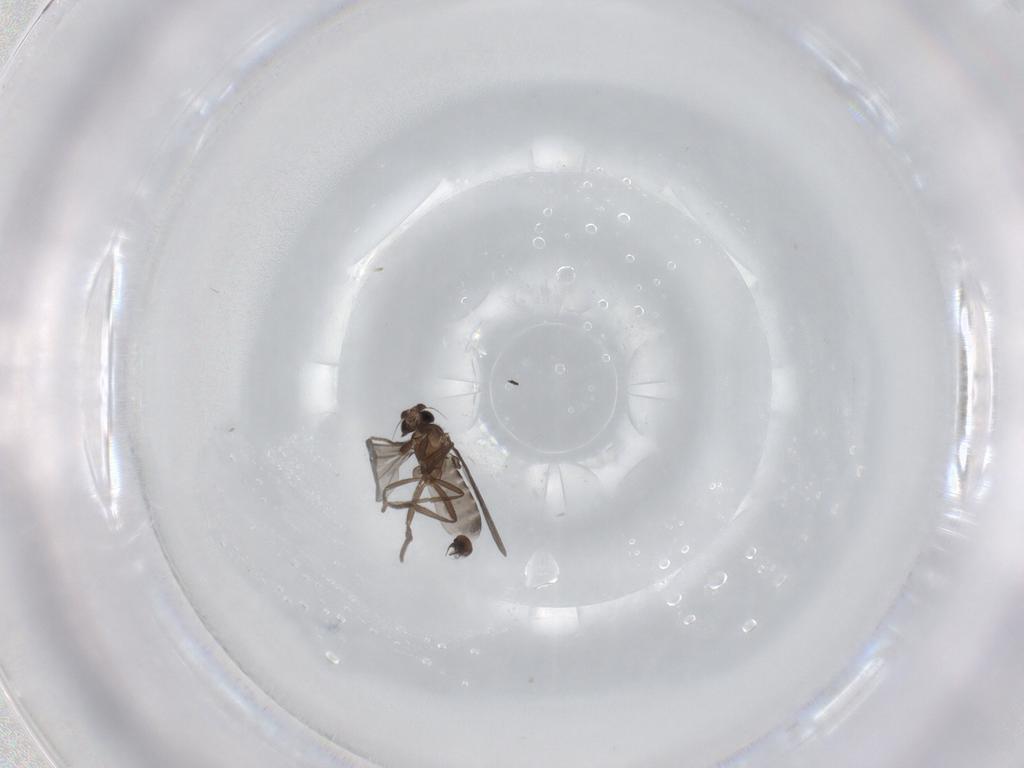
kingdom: Animalia
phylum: Arthropoda
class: Insecta
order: Diptera
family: Phoridae
